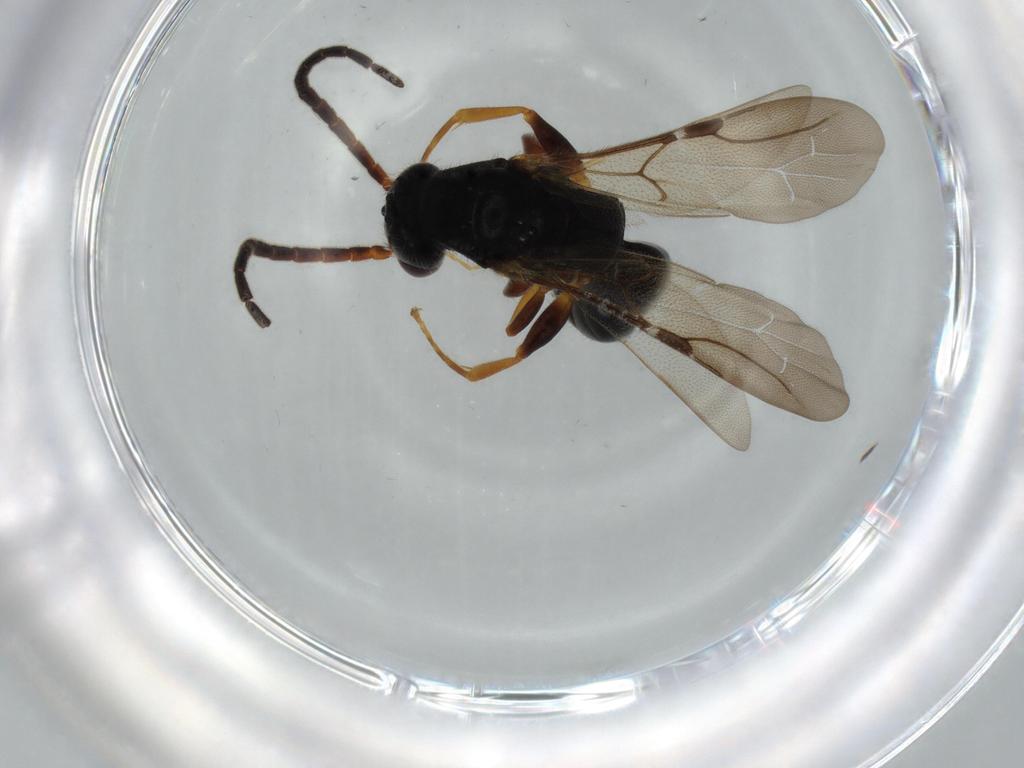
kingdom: Animalia
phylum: Arthropoda
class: Insecta
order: Hymenoptera
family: Bethylidae
